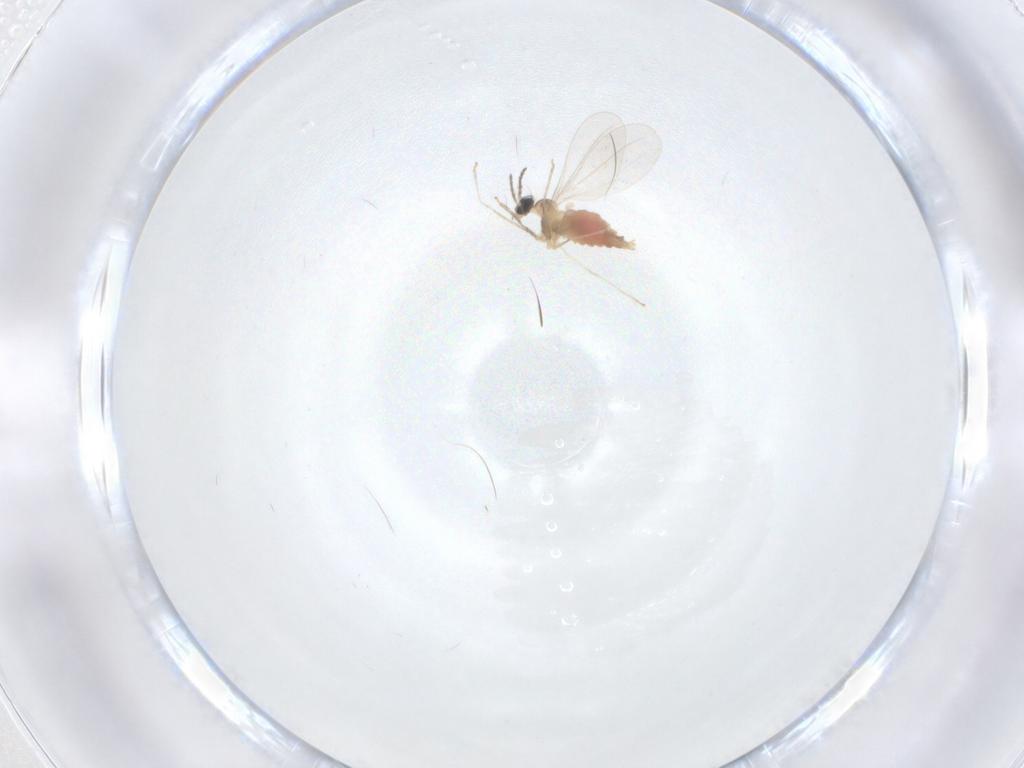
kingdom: Animalia
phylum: Arthropoda
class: Insecta
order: Diptera
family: Cecidomyiidae
